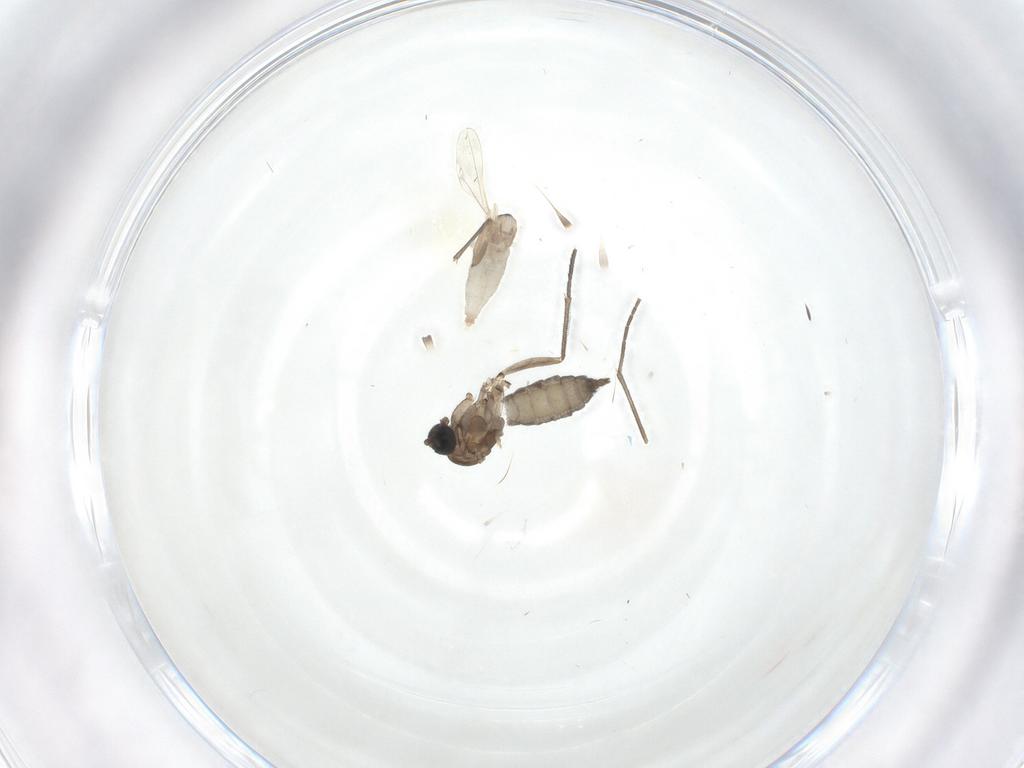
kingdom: Animalia
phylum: Arthropoda
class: Insecta
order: Diptera
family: Cecidomyiidae
